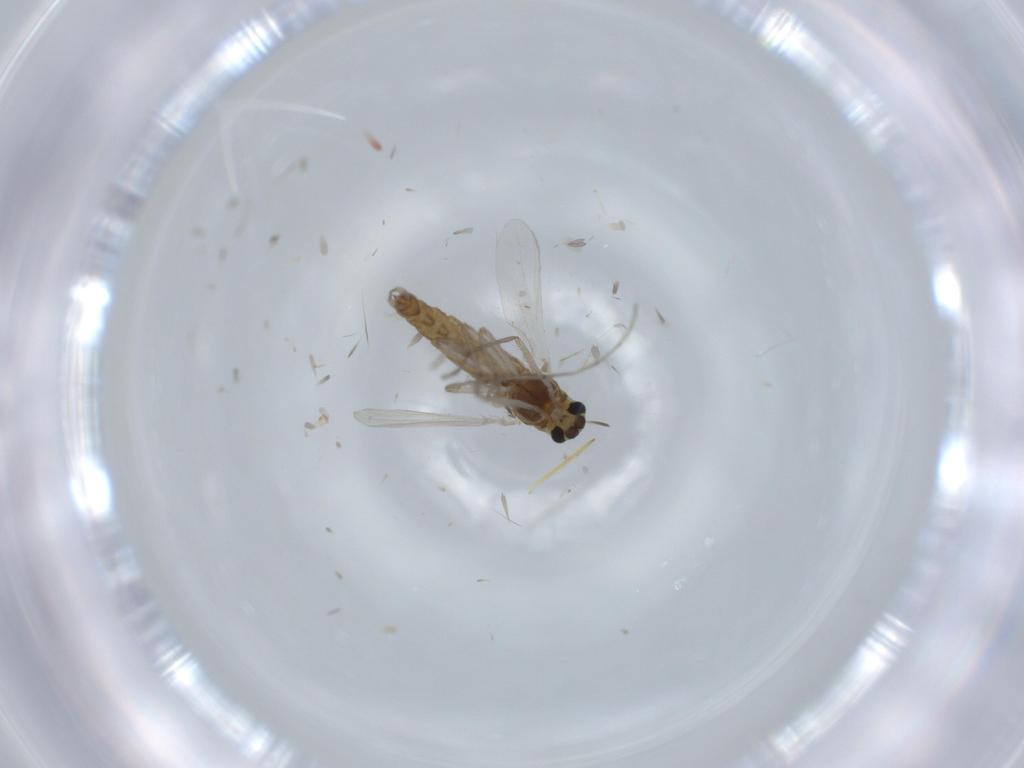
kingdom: Animalia
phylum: Arthropoda
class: Insecta
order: Diptera
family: Chironomidae
